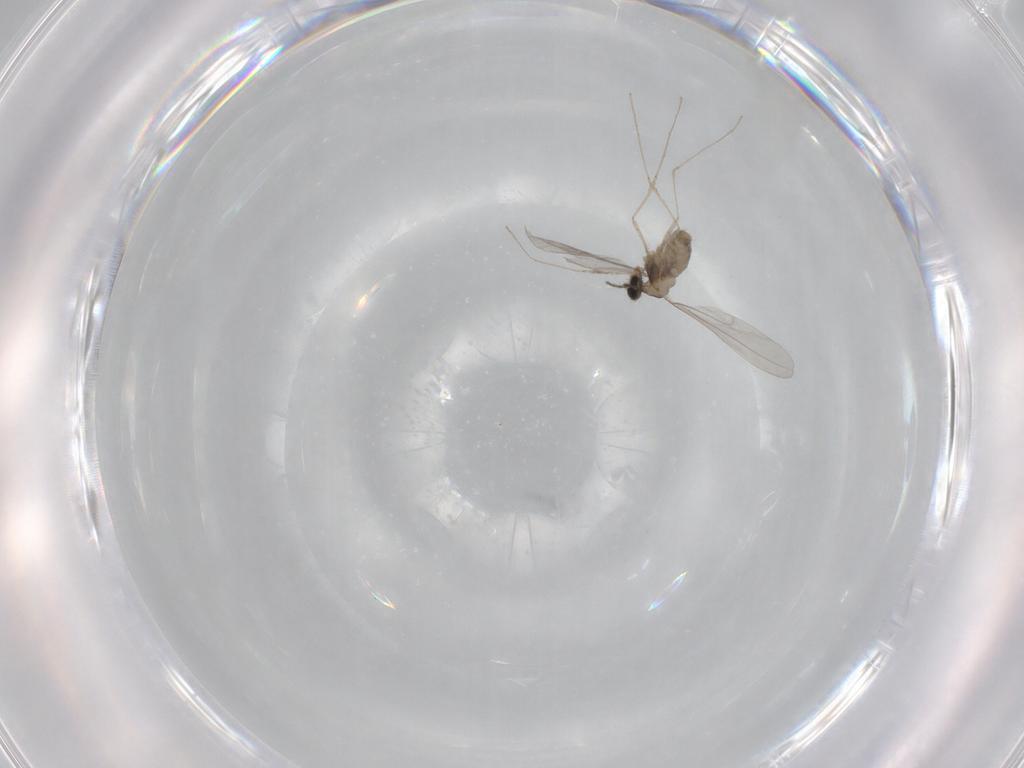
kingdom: Animalia
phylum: Arthropoda
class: Insecta
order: Diptera
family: Cecidomyiidae
